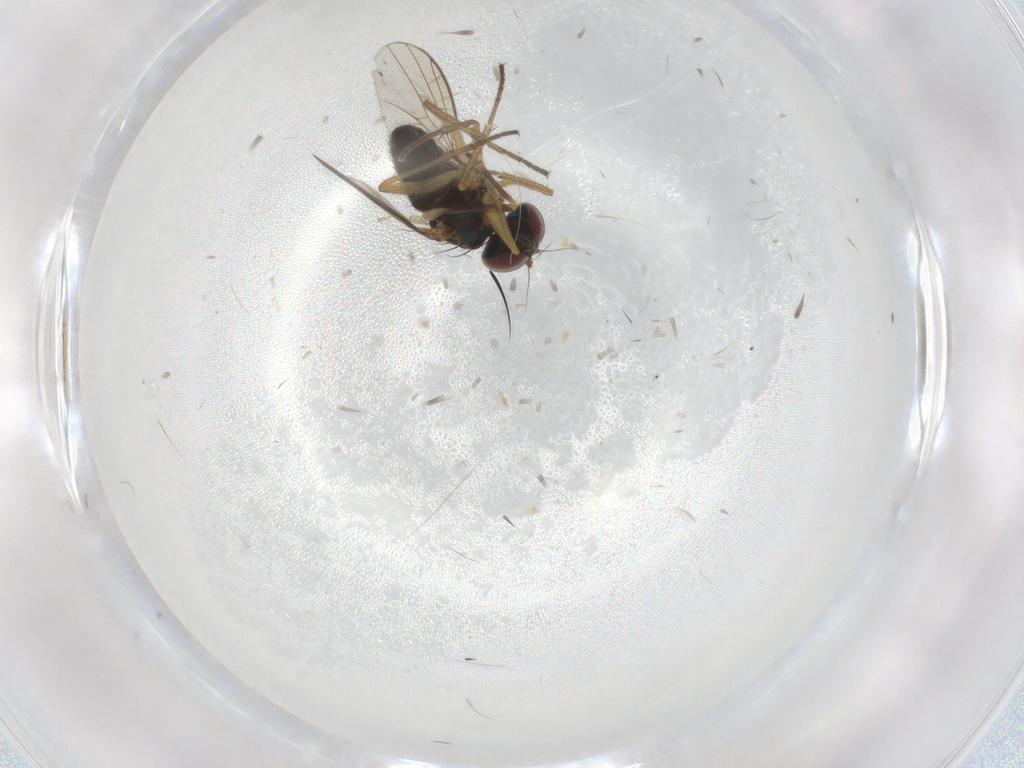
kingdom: Animalia
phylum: Arthropoda
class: Insecta
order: Diptera
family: Chironomidae
